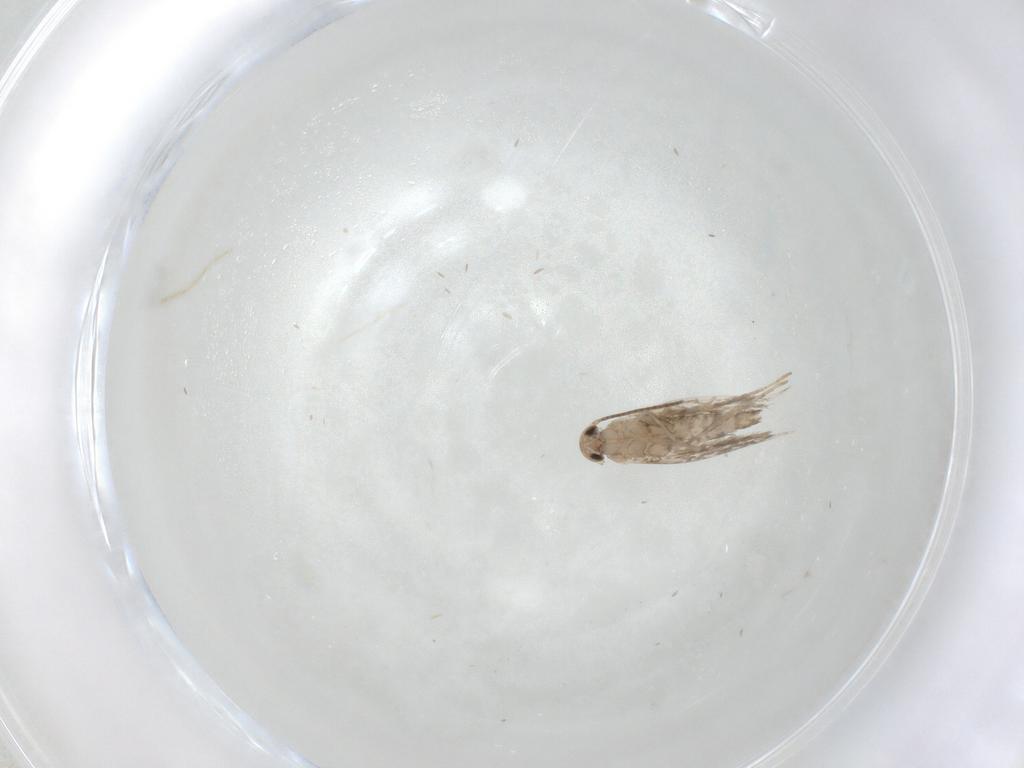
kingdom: Animalia
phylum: Arthropoda
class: Insecta
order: Lepidoptera
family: Gracillariidae
